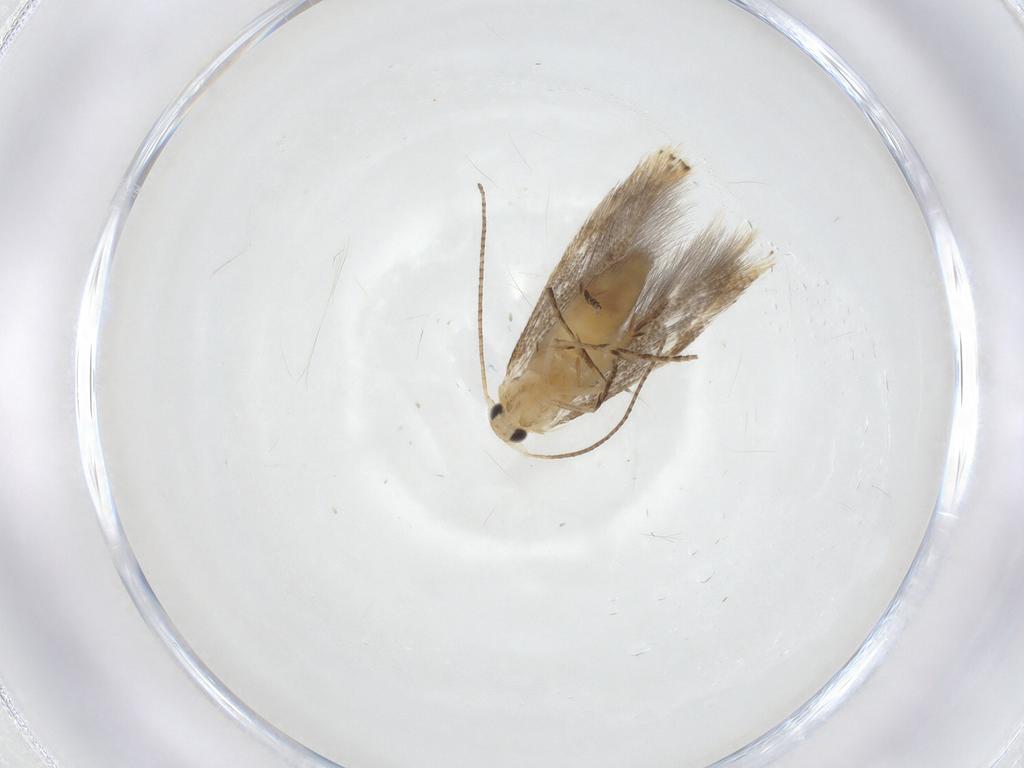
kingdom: Animalia
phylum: Arthropoda
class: Insecta
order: Lepidoptera
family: Bucculatricidae
